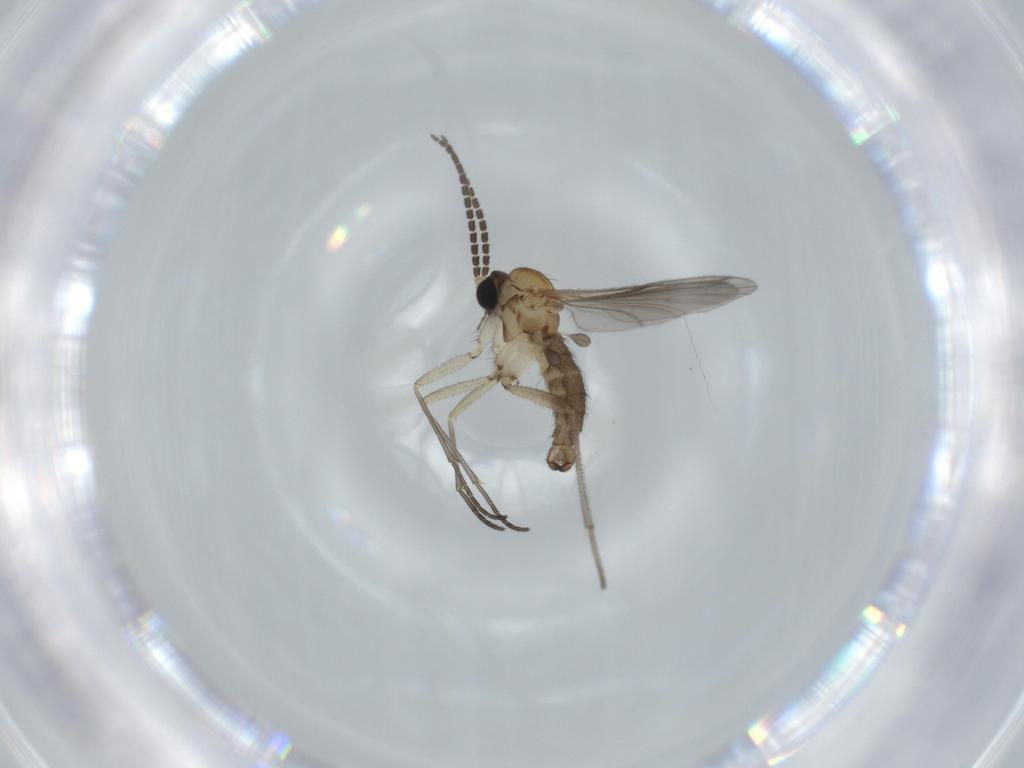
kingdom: Animalia
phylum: Arthropoda
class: Insecta
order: Diptera
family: Sciaridae
